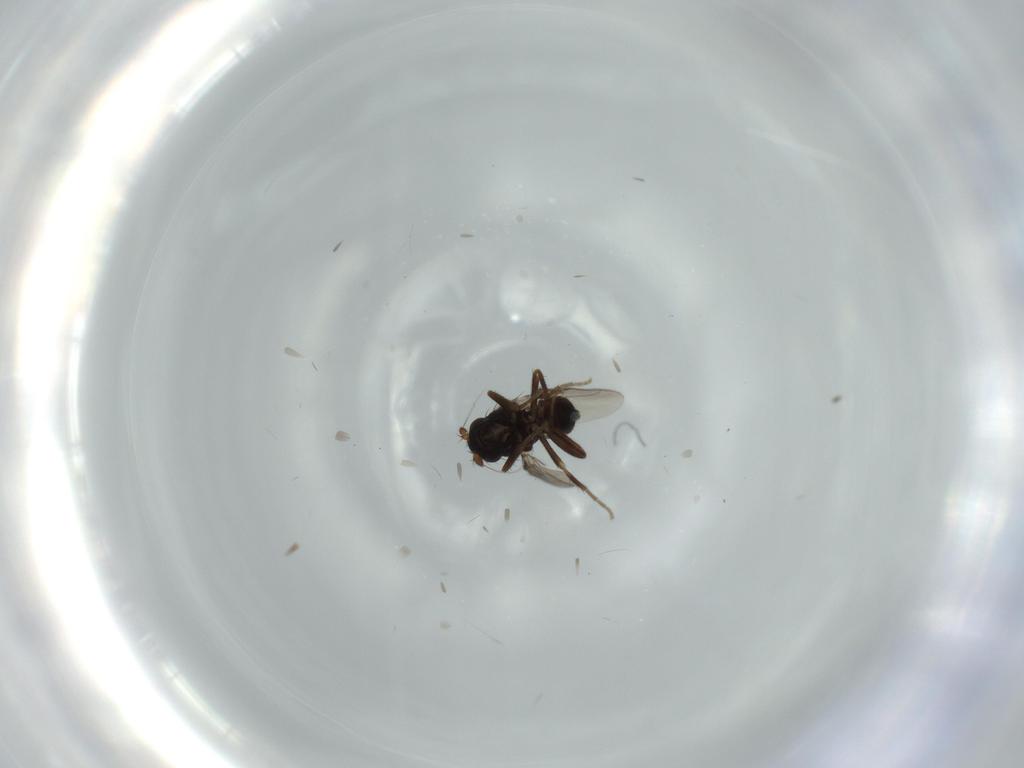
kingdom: Animalia
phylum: Arthropoda
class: Insecta
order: Diptera
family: Sphaeroceridae
